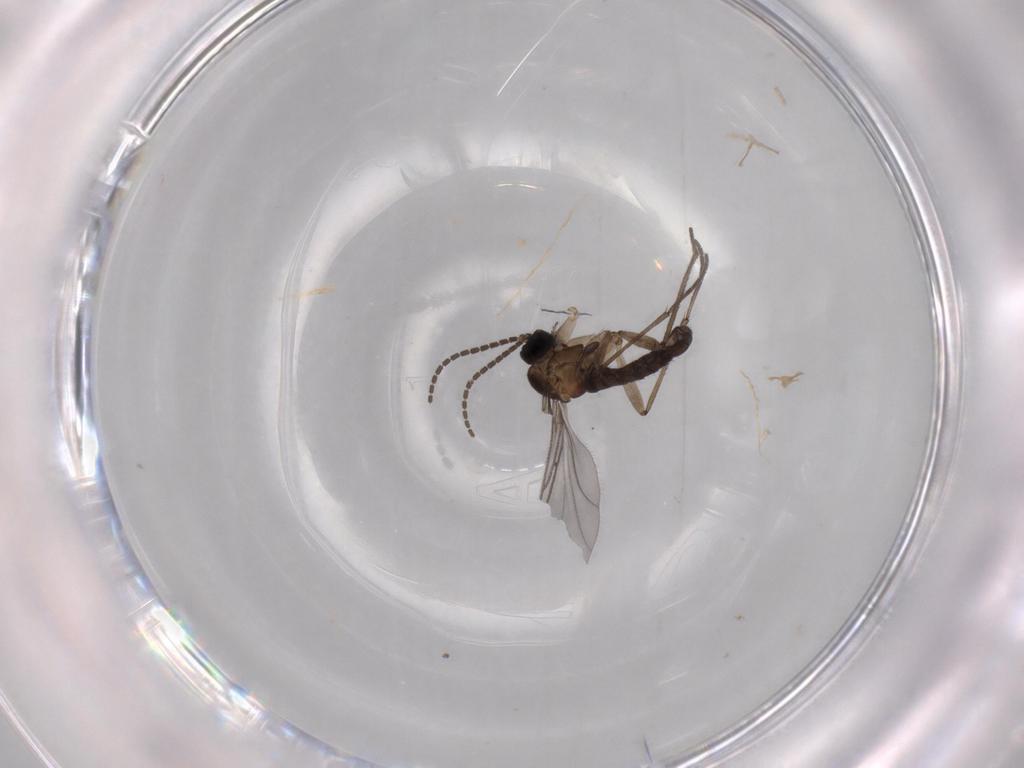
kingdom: Animalia
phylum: Arthropoda
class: Insecta
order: Diptera
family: Sciaridae
